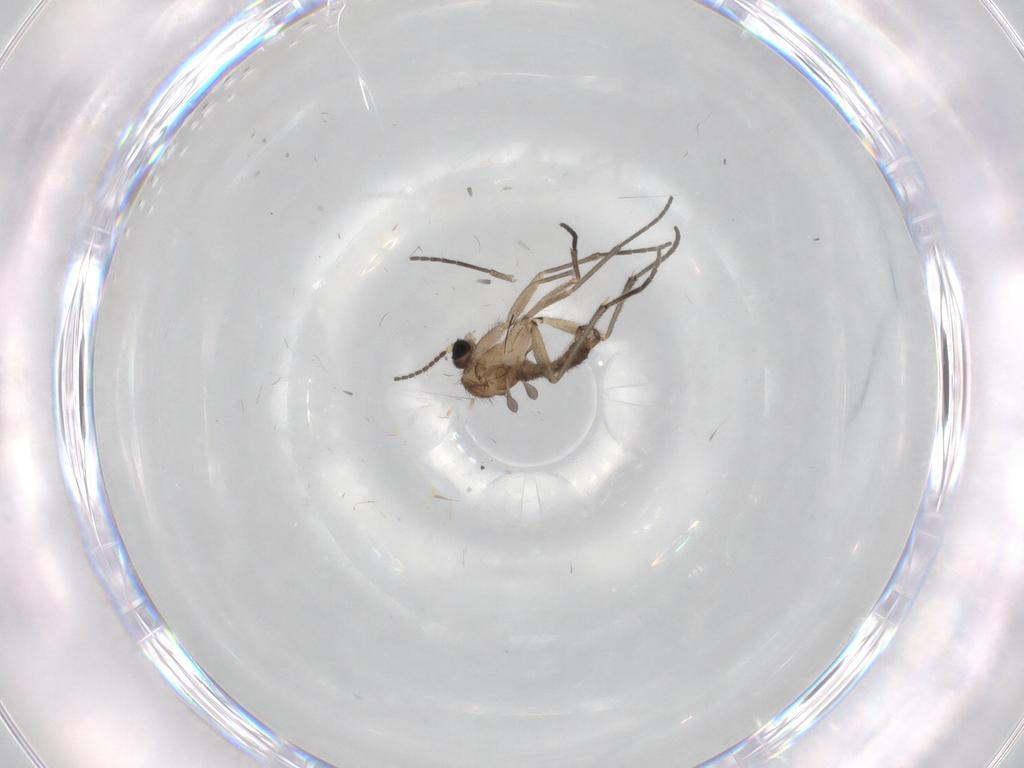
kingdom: Animalia
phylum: Arthropoda
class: Insecta
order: Diptera
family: Sciaridae
